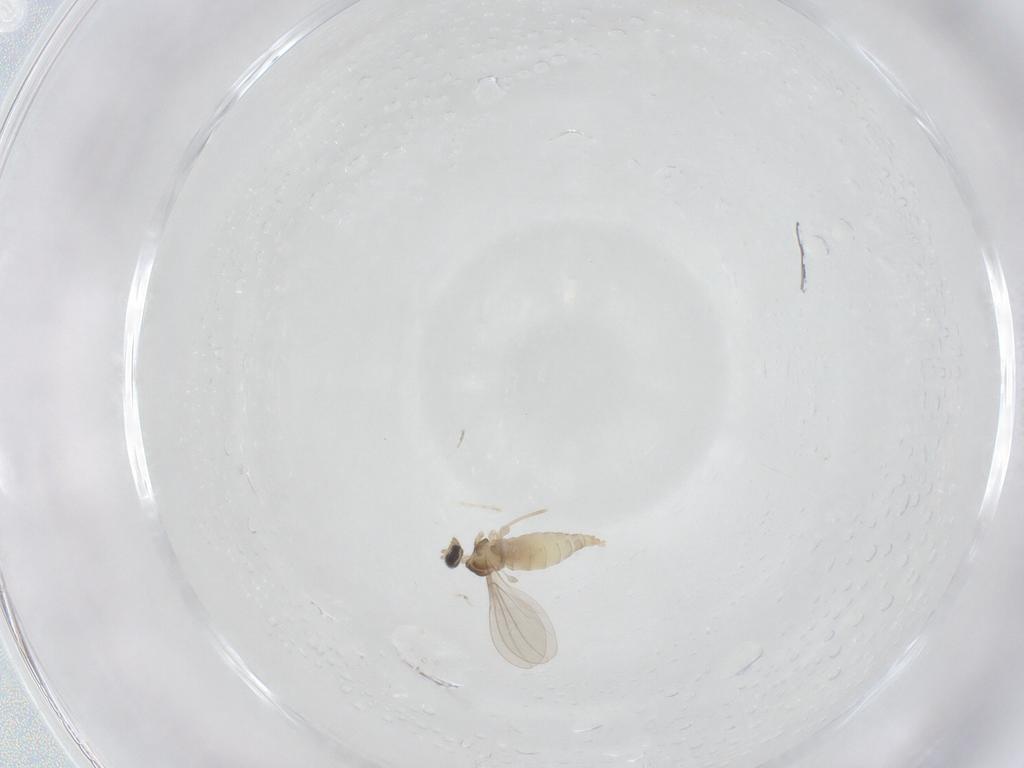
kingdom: Animalia
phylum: Arthropoda
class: Insecta
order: Diptera
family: Cecidomyiidae
